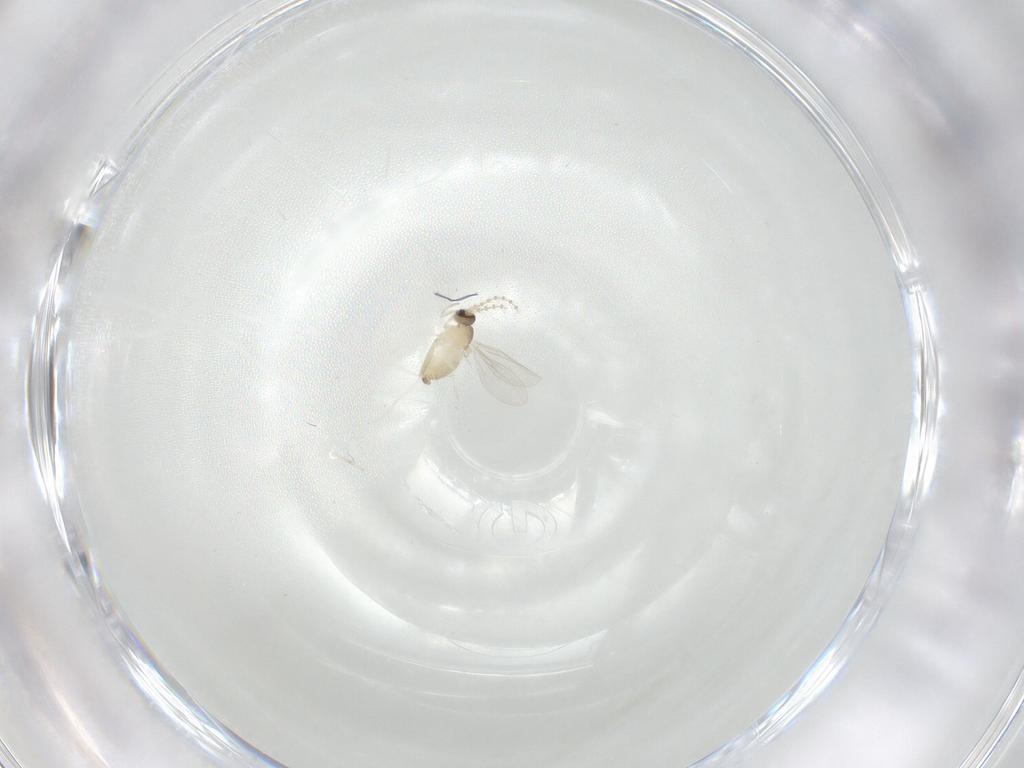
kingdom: Animalia
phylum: Arthropoda
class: Insecta
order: Diptera
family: Cecidomyiidae
